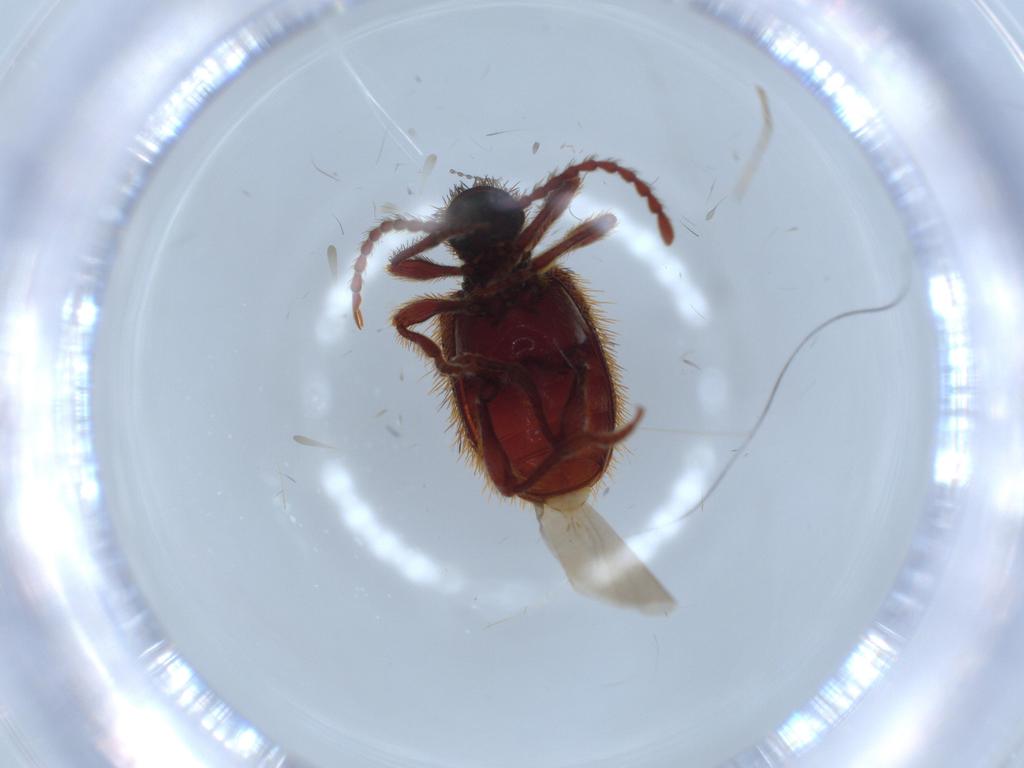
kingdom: Animalia
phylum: Arthropoda
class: Insecta
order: Coleoptera
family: Ptinidae
